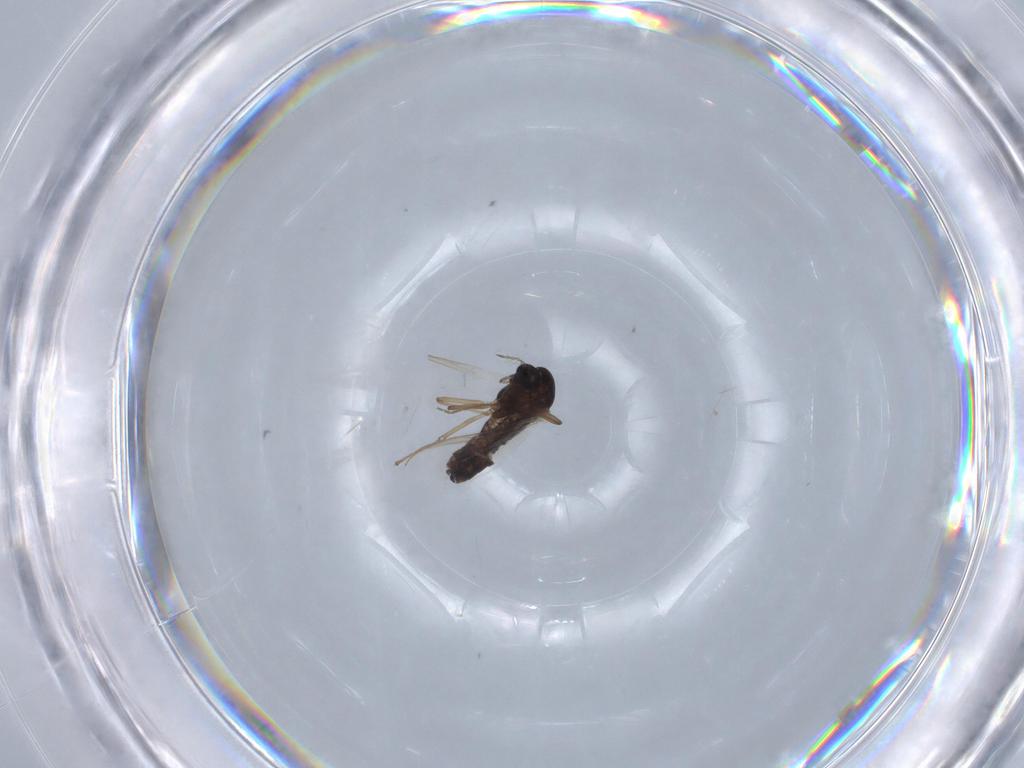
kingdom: Animalia
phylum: Arthropoda
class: Insecta
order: Diptera
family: Chironomidae
